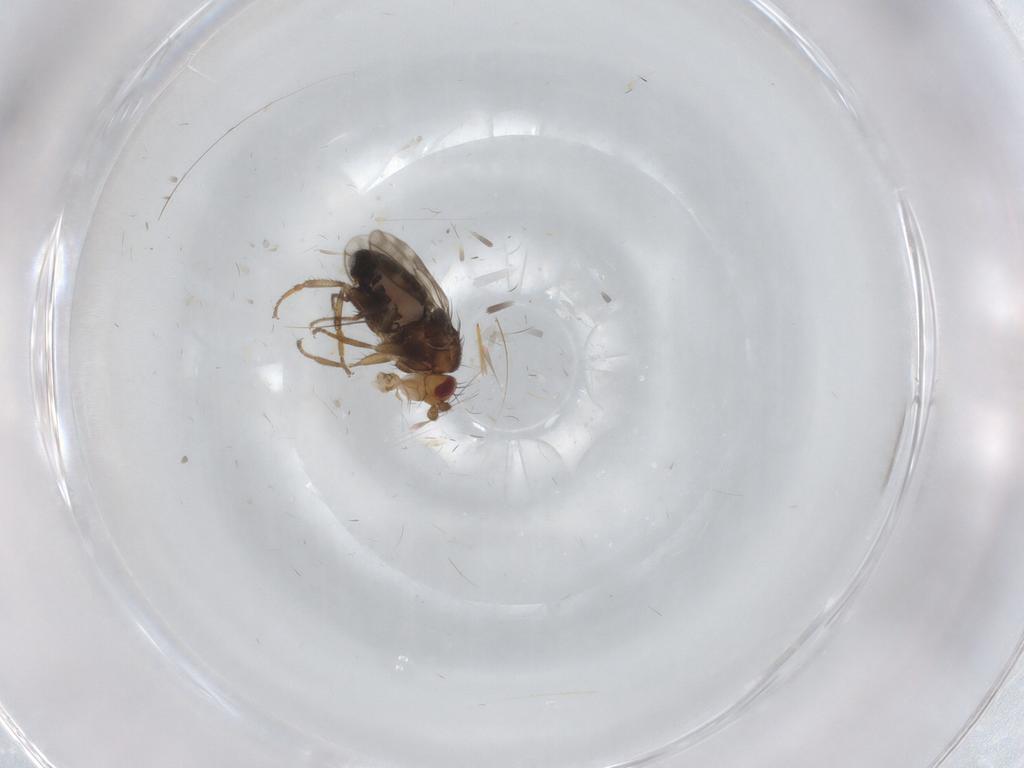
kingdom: Animalia
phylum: Arthropoda
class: Insecta
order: Diptera
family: Sphaeroceridae
